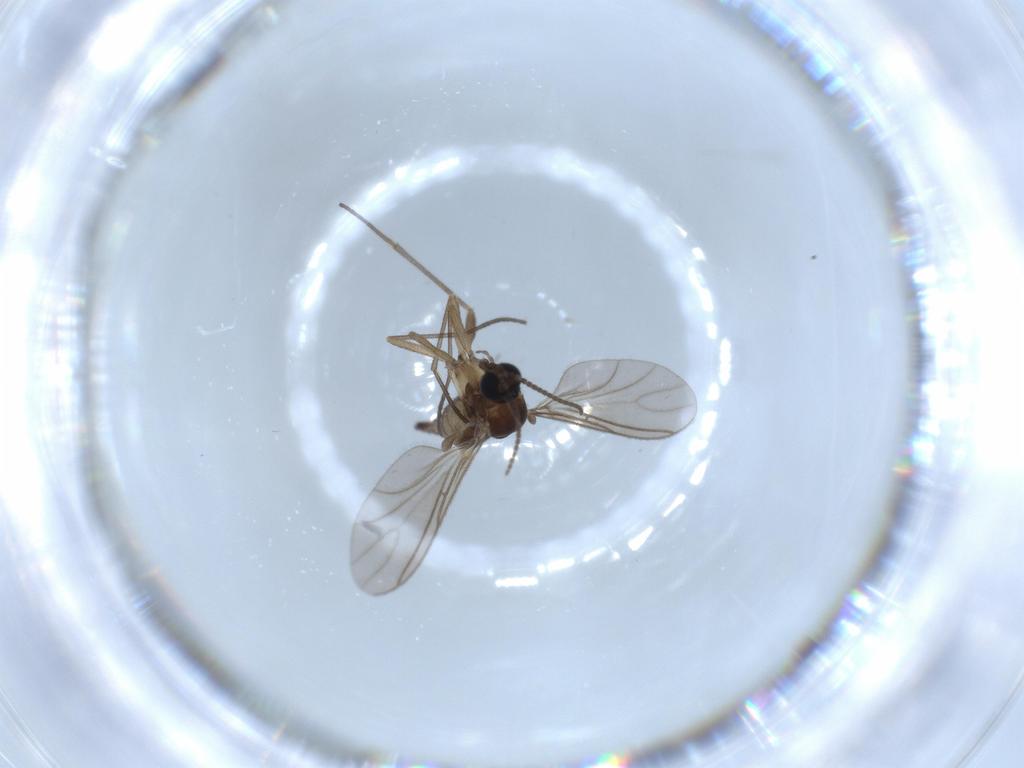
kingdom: Animalia
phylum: Arthropoda
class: Insecta
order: Diptera
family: Sciaridae
